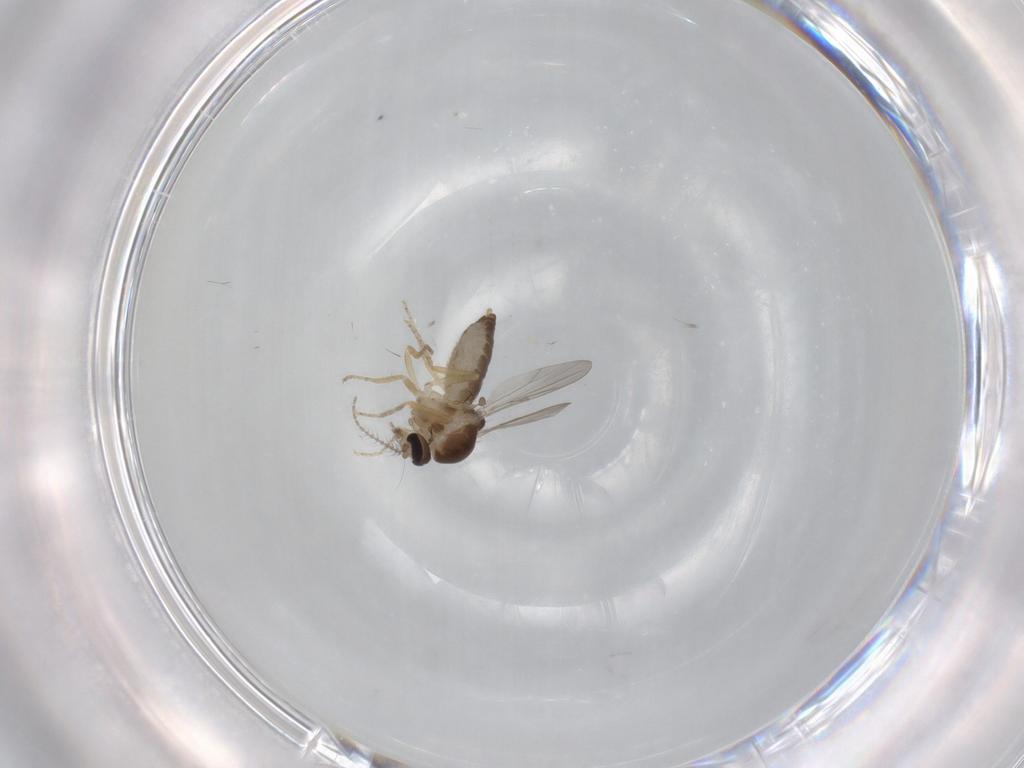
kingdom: Animalia
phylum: Arthropoda
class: Insecta
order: Diptera
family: Ceratopogonidae
